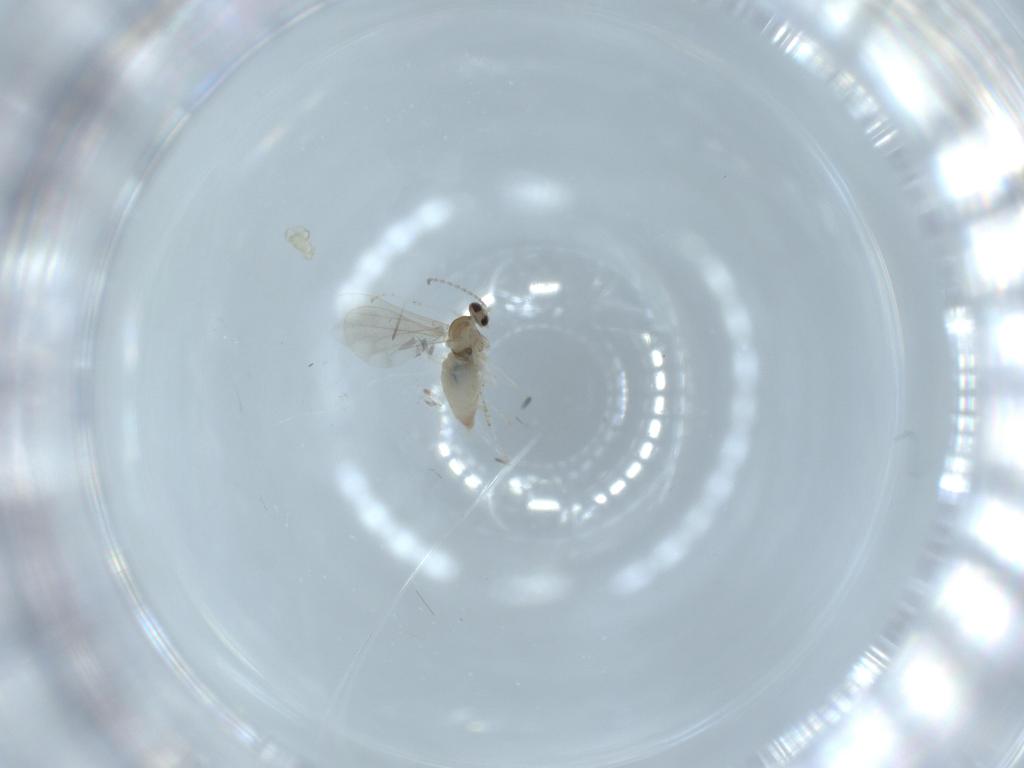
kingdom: Animalia
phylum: Arthropoda
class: Insecta
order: Diptera
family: Cecidomyiidae
